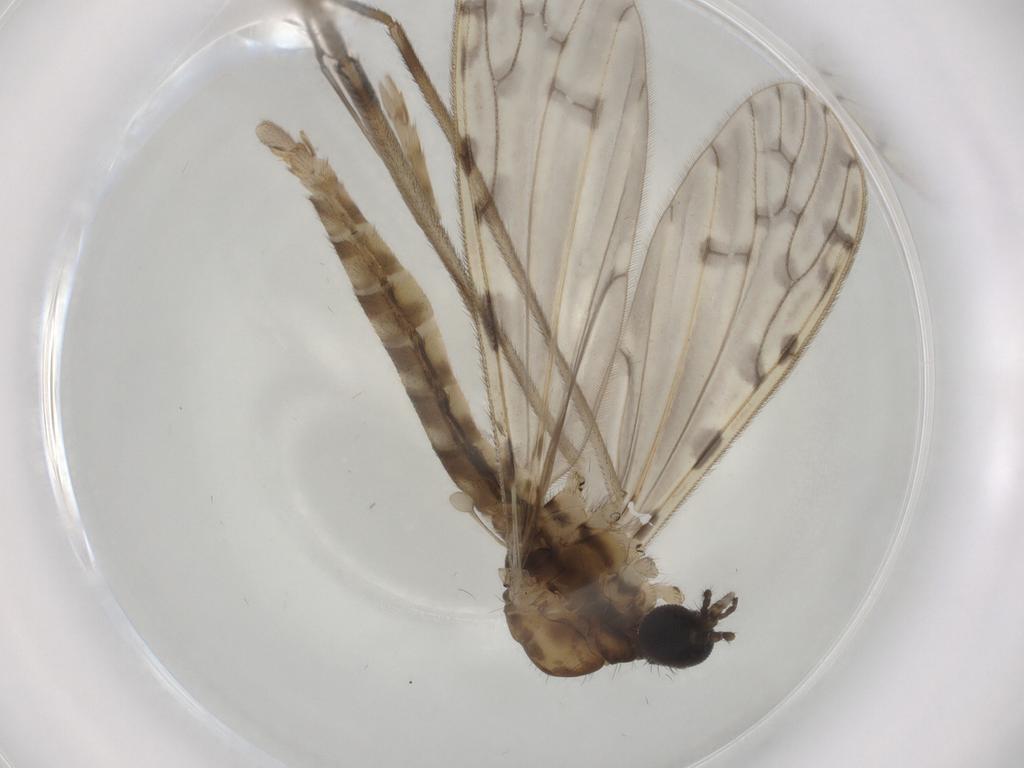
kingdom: Animalia
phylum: Arthropoda
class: Insecta
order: Diptera
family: Limoniidae
